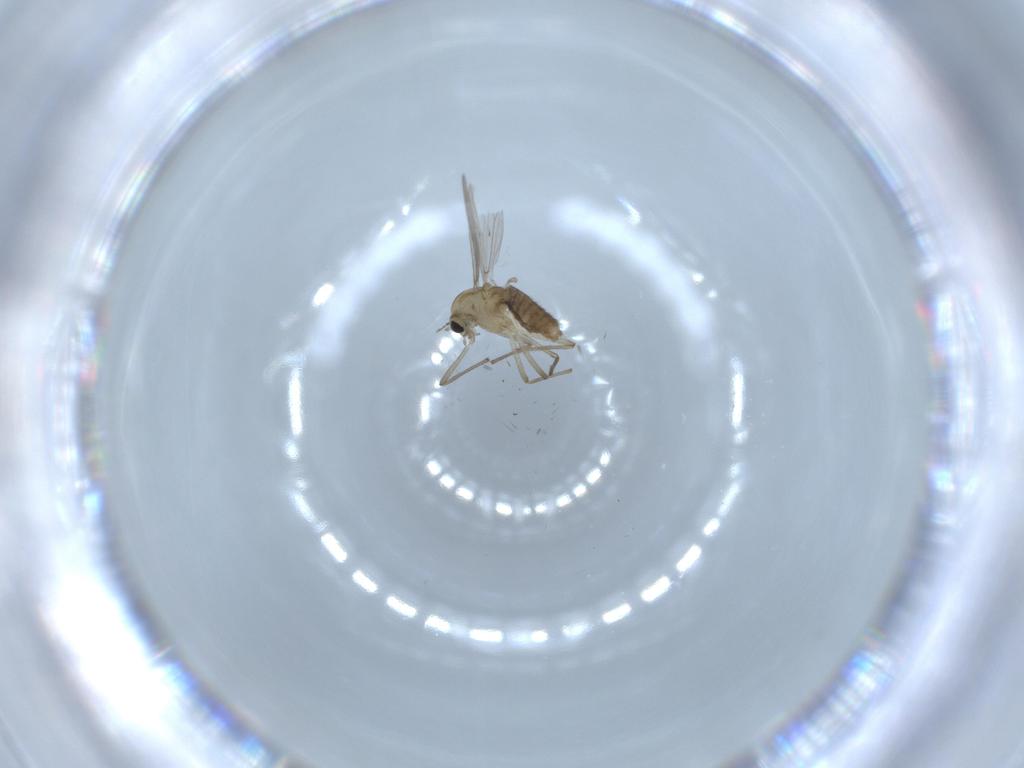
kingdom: Animalia
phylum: Arthropoda
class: Insecta
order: Diptera
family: Chironomidae
